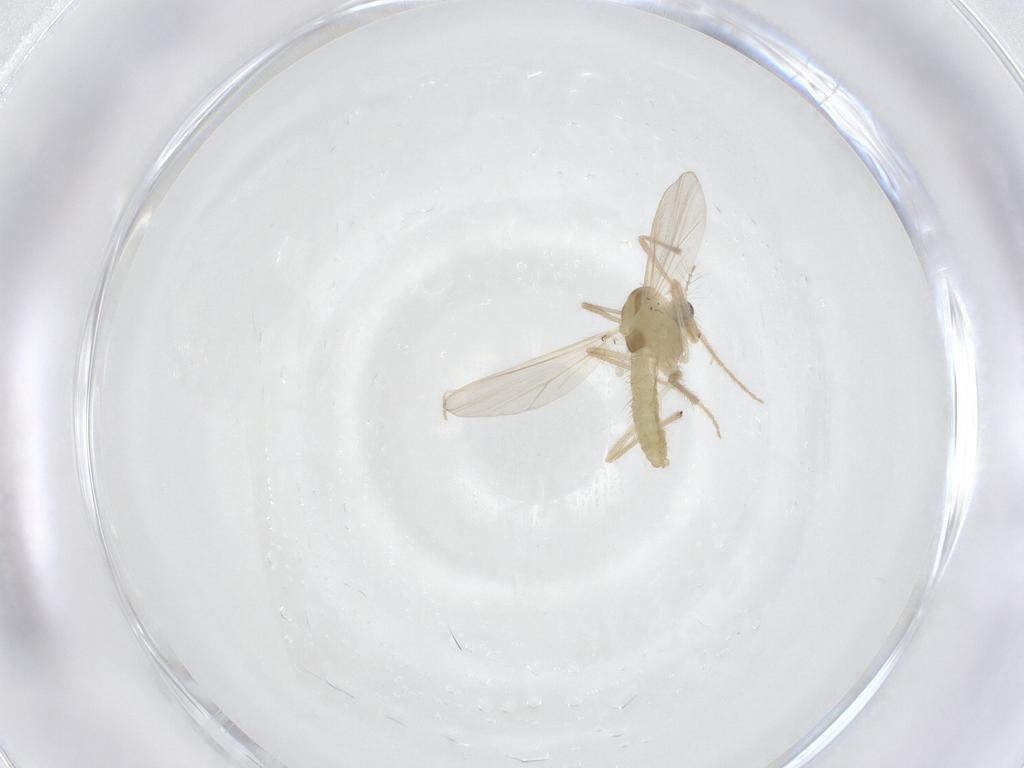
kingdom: Animalia
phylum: Arthropoda
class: Insecta
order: Diptera
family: Chironomidae
